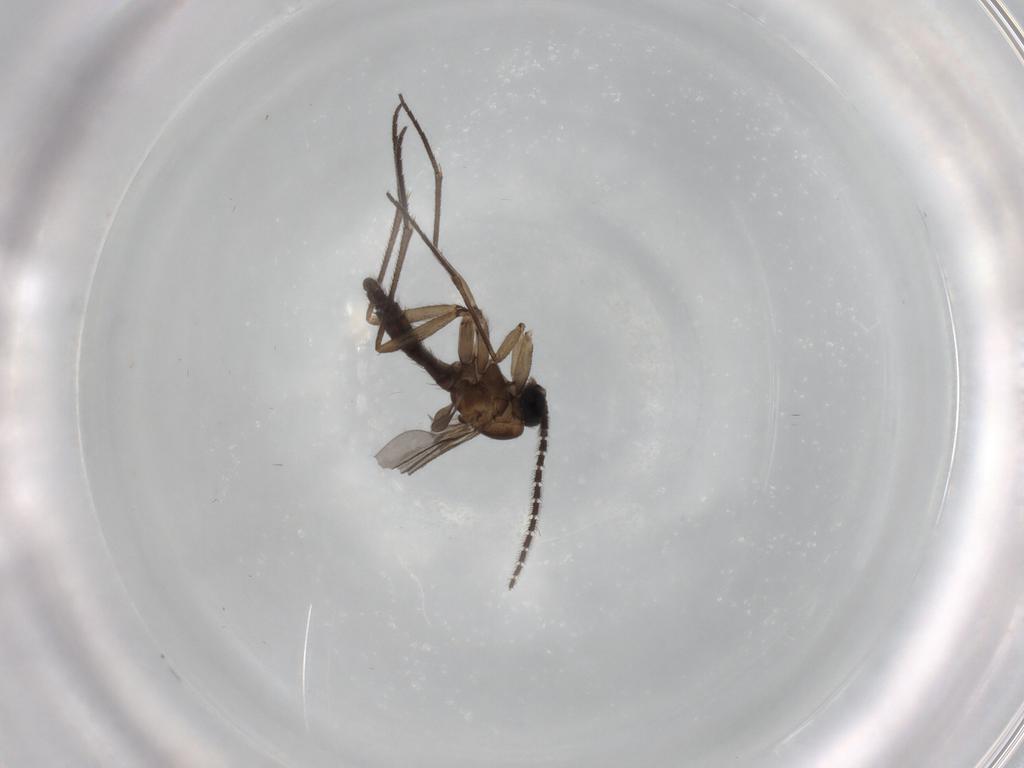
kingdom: Animalia
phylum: Arthropoda
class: Insecta
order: Diptera
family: Sciaridae
